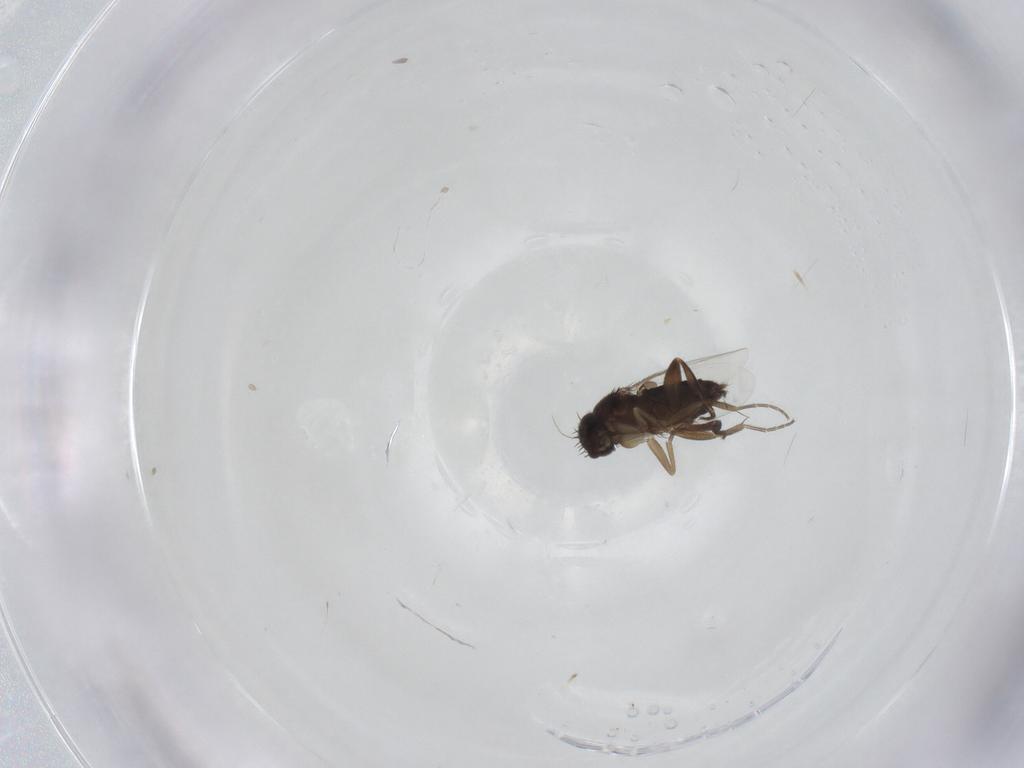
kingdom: Animalia
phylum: Arthropoda
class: Insecta
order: Diptera
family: Phoridae
